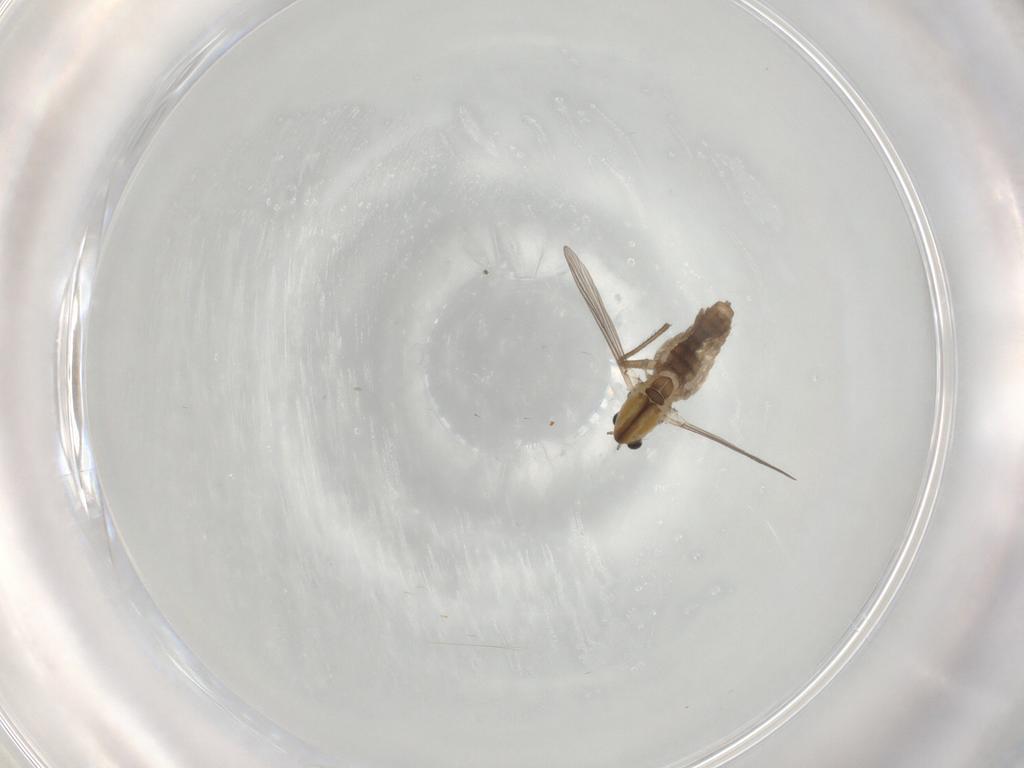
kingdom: Animalia
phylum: Arthropoda
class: Insecta
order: Diptera
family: Chironomidae
